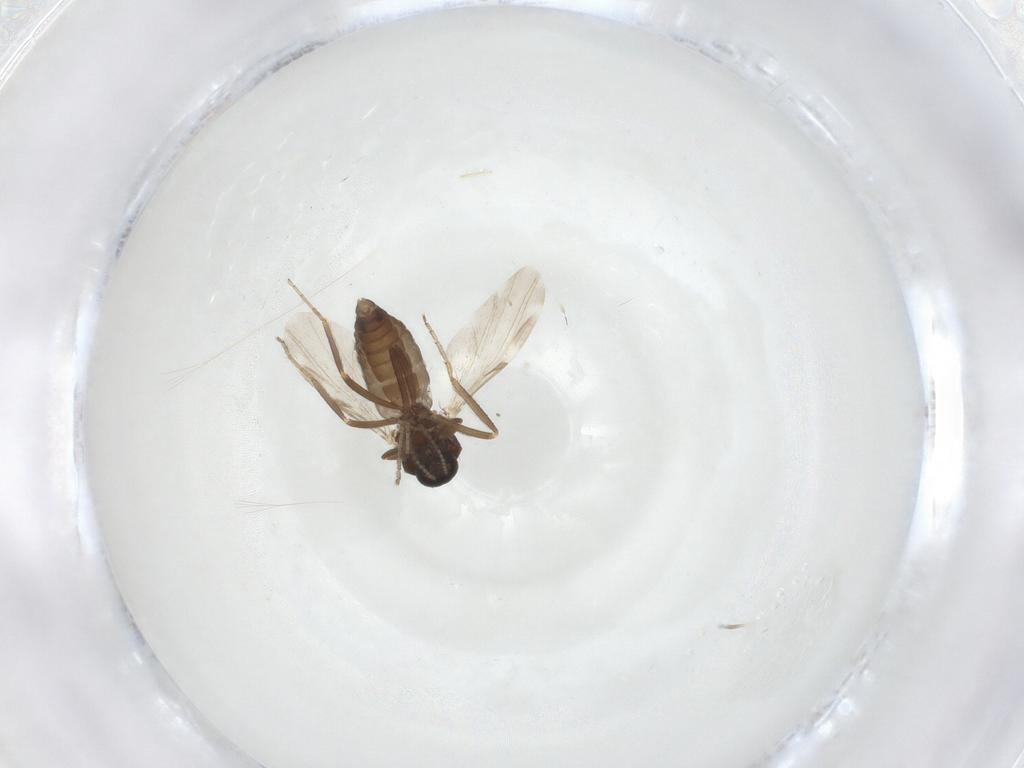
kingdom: Animalia
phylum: Arthropoda
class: Insecta
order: Diptera
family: Ceratopogonidae
